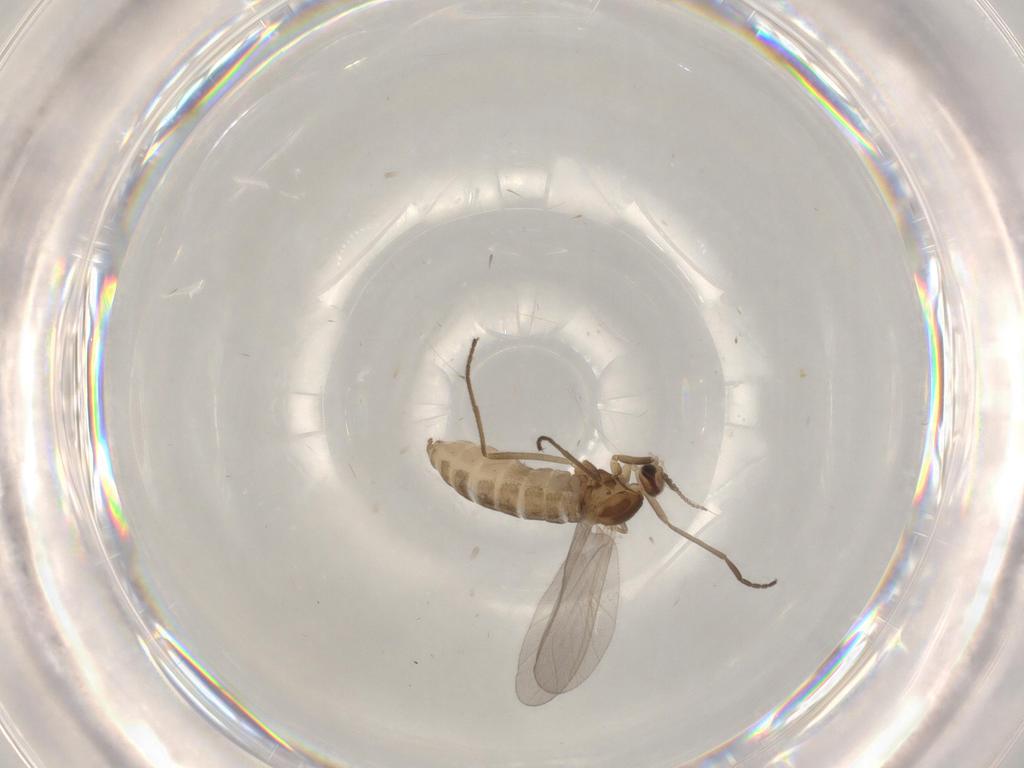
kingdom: Animalia
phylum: Arthropoda
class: Insecta
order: Diptera
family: Cecidomyiidae
